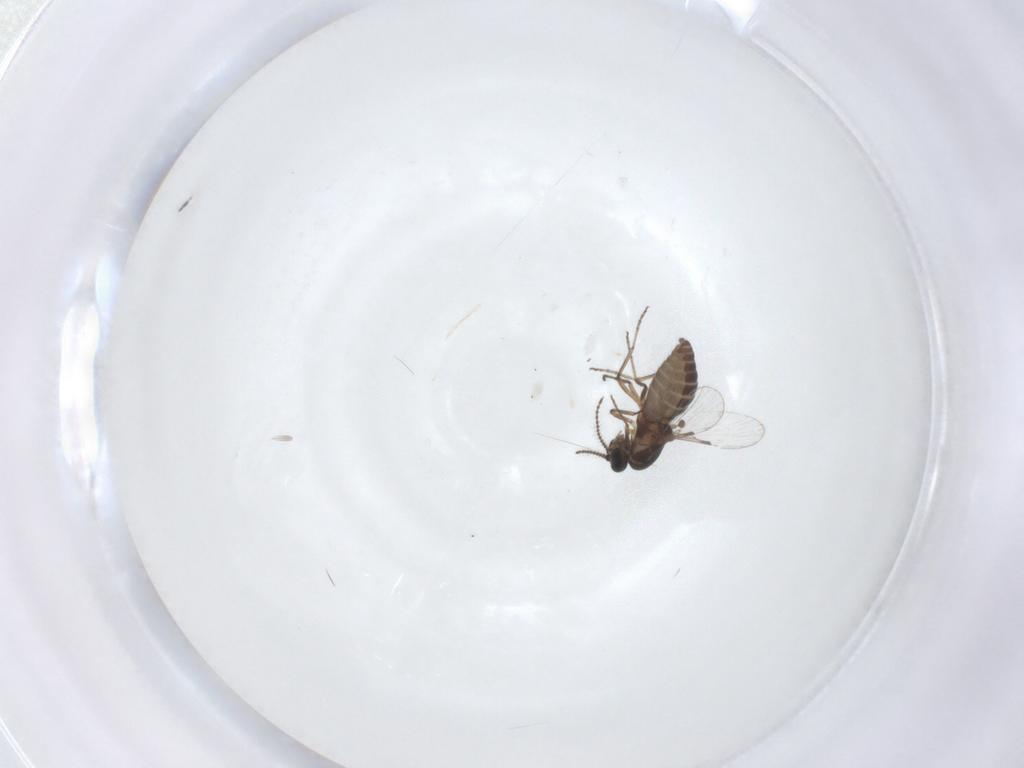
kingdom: Animalia
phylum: Arthropoda
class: Insecta
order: Diptera
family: Ceratopogonidae
